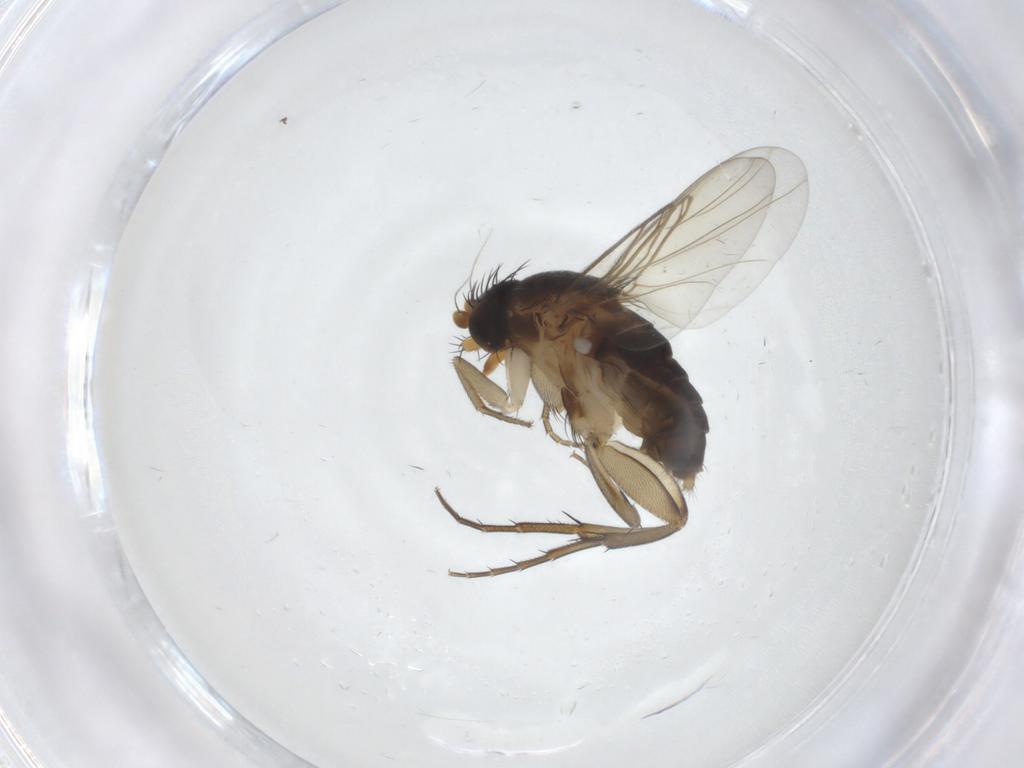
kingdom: Animalia
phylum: Arthropoda
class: Insecta
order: Diptera
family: Phoridae
